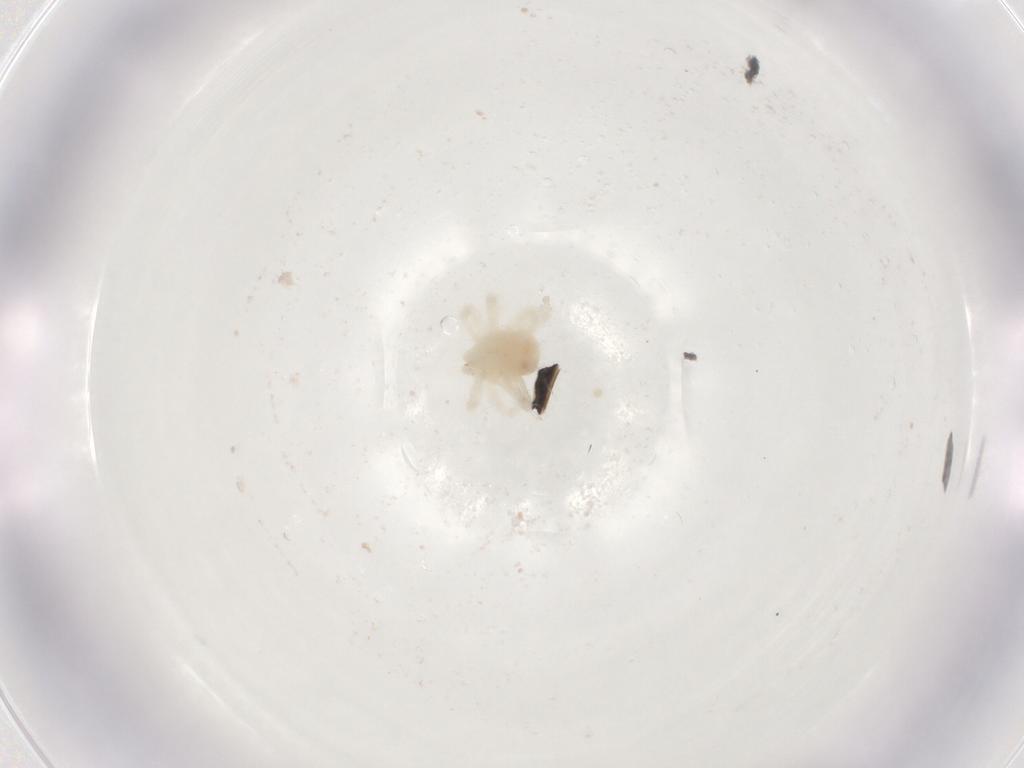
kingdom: Animalia
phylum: Arthropoda
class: Arachnida
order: Trombidiformes
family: Anystidae
